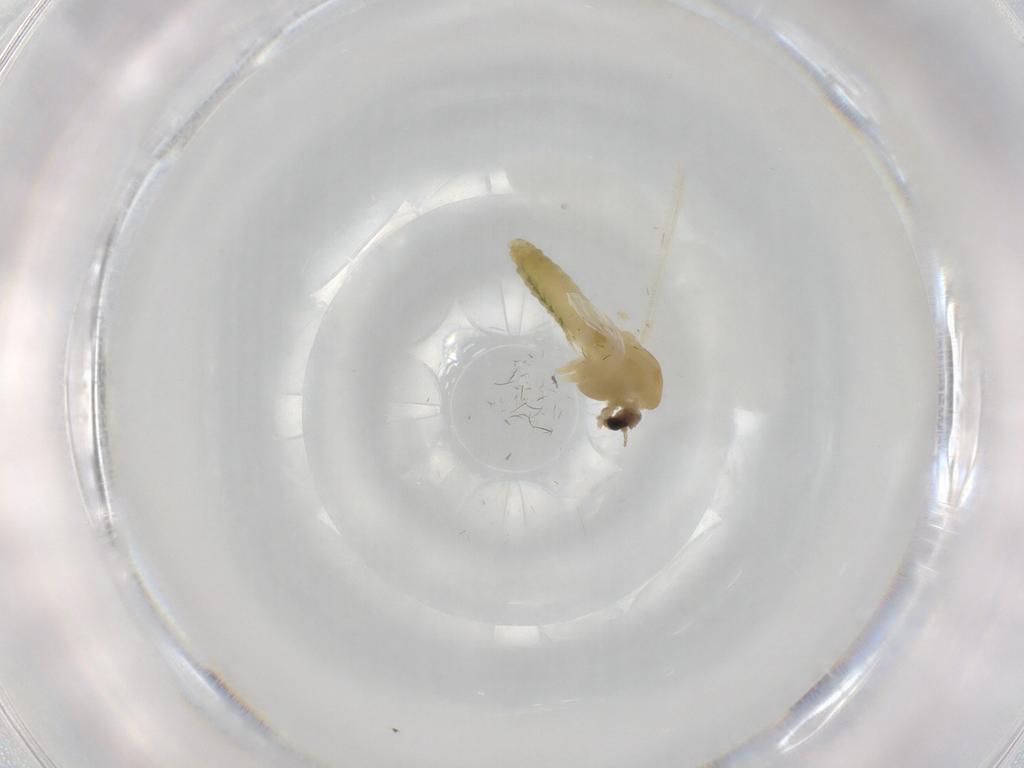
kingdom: Animalia
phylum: Arthropoda
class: Insecta
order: Diptera
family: Chironomidae
